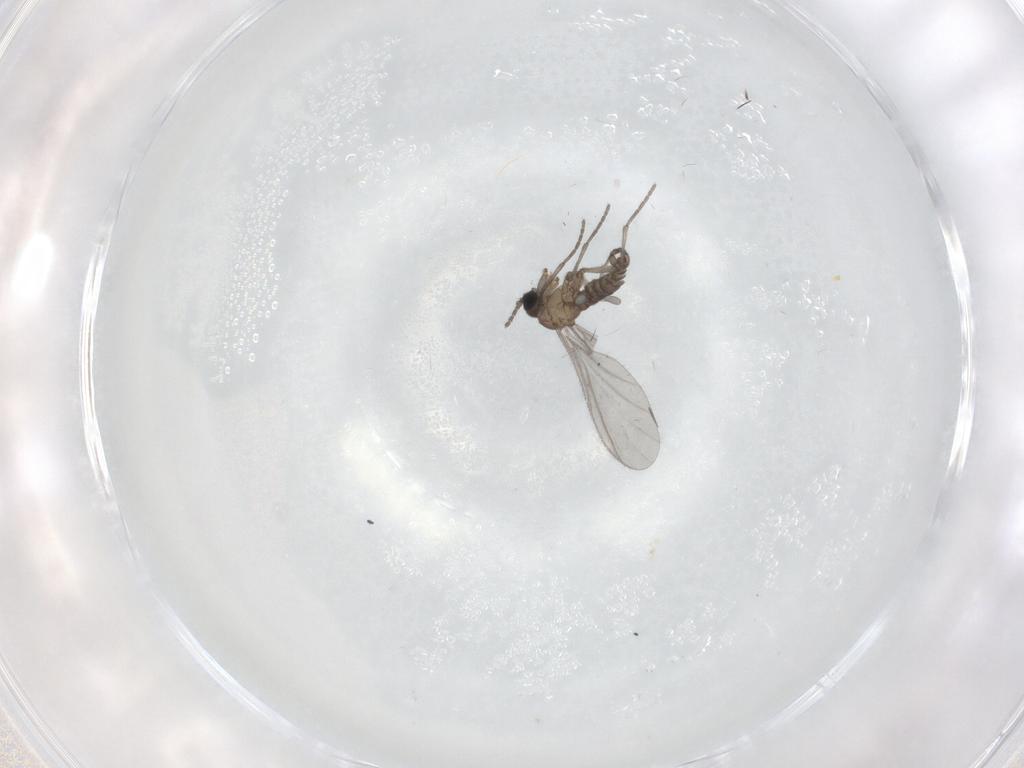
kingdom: Animalia
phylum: Arthropoda
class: Insecta
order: Diptera
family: Sciaridae
